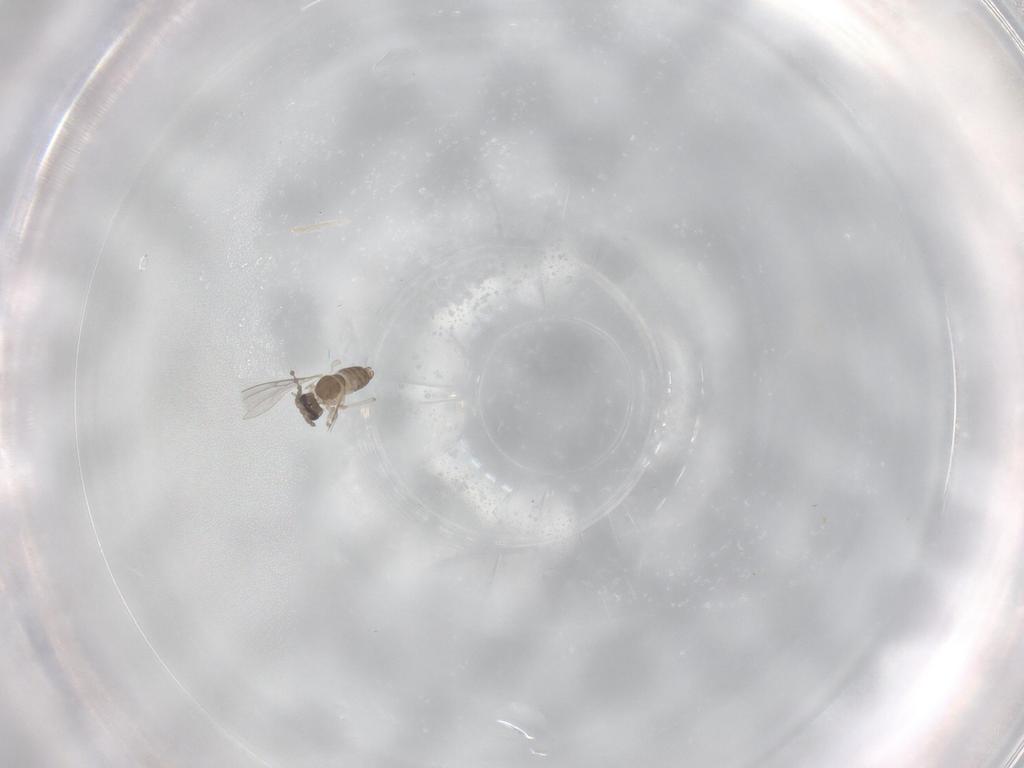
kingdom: Animalia
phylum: Arthropoda
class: Insecta
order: Diptera
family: Cecidomyiidae
